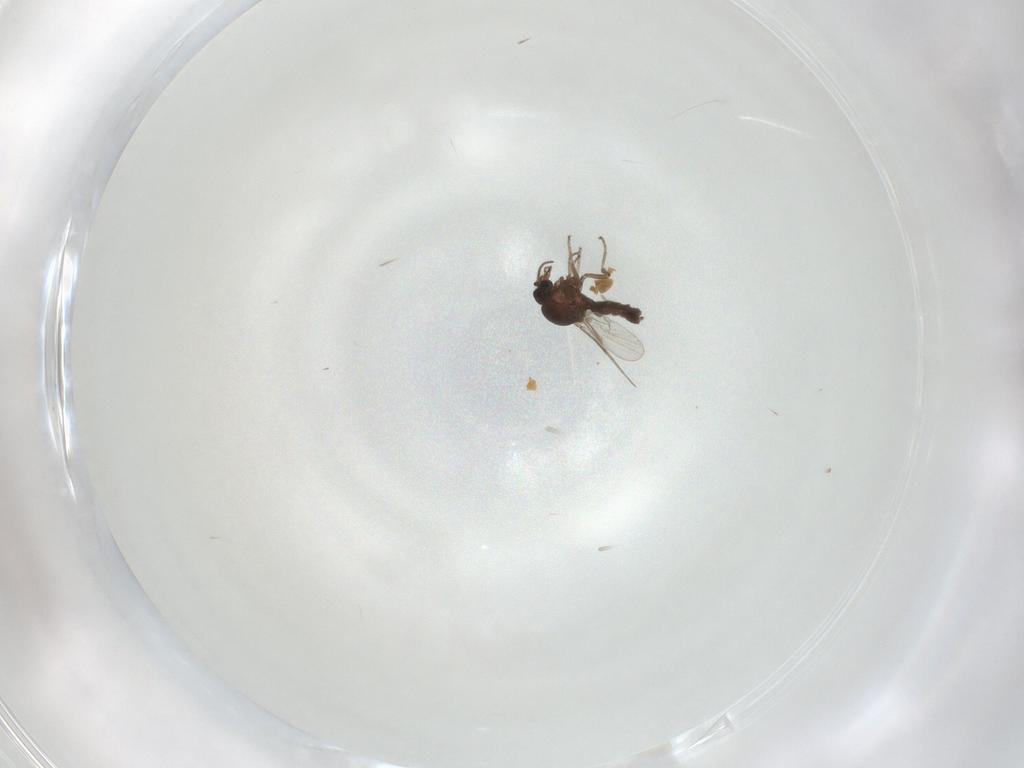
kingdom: Animalia
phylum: Arthropoda
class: Insecta
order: Diptera
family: Ceratopogonidae
